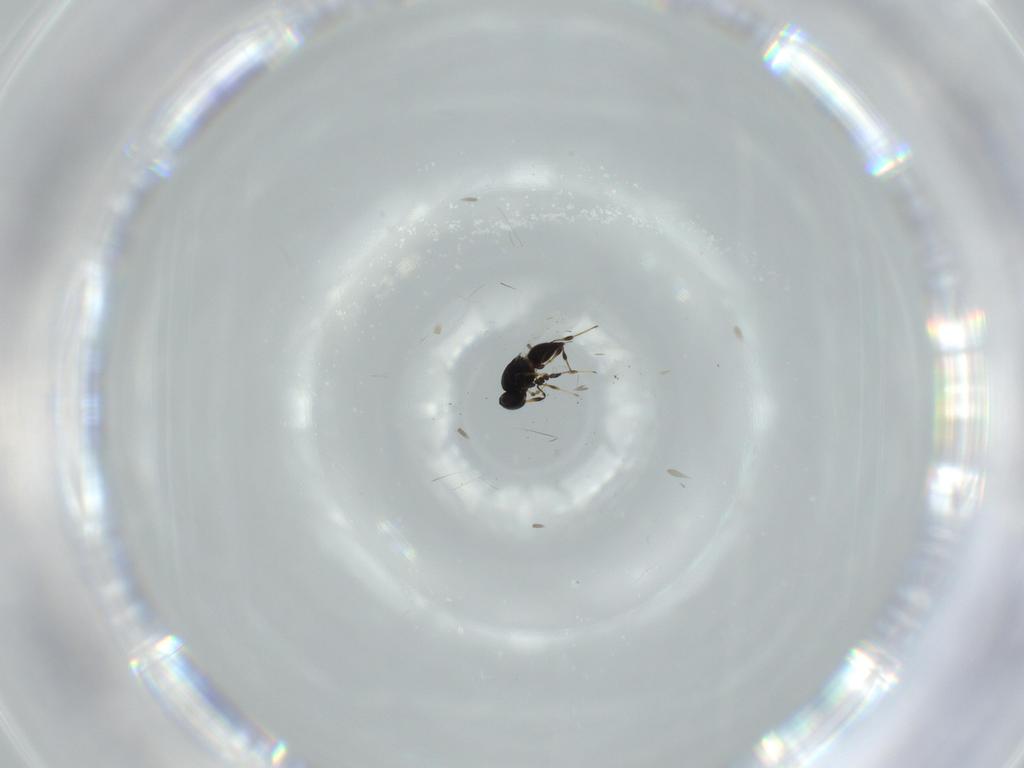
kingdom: Animalia
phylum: Arthropoda
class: Insecta
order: Hymenoptera
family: Platygastridae
